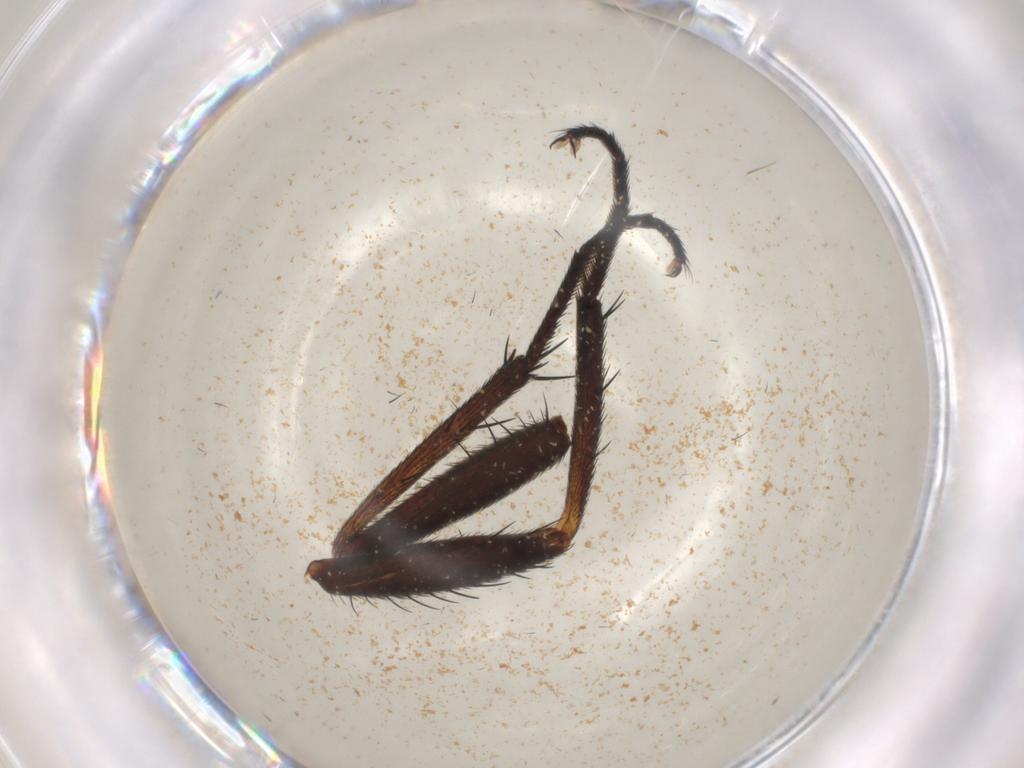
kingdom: Animalia
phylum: Arthropoda
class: Insecta
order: Diptera
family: Calliphoridae
